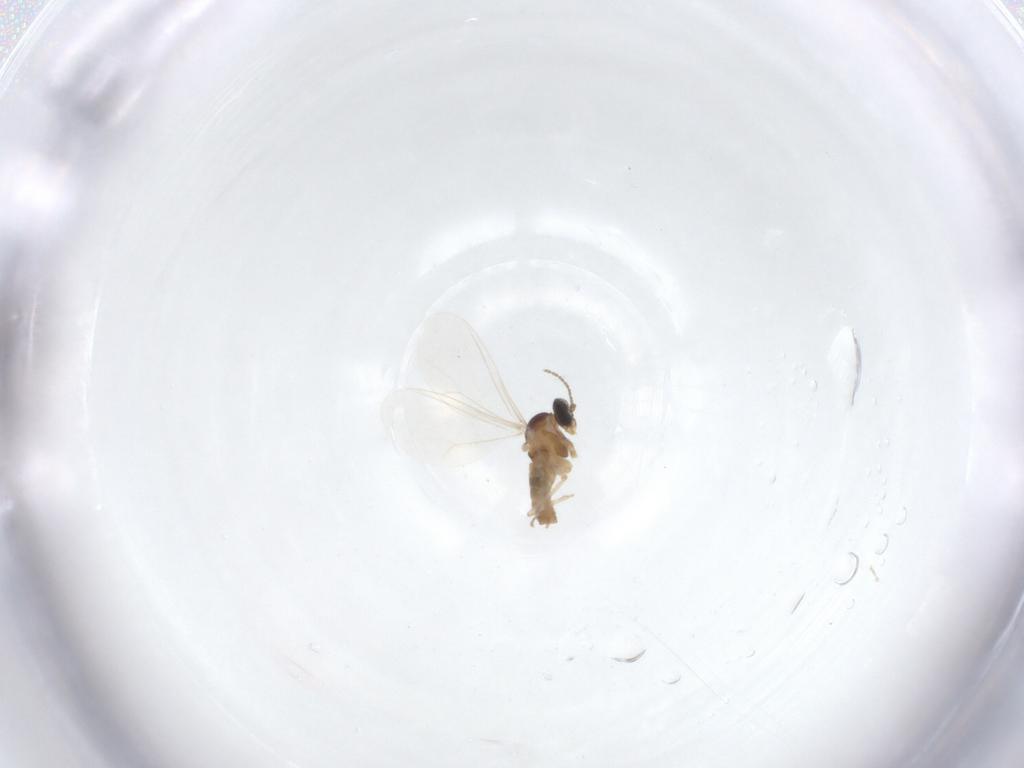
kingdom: Animalia
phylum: Arthropoda
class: Insecta
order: Diptera
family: Cecidomyiidae
